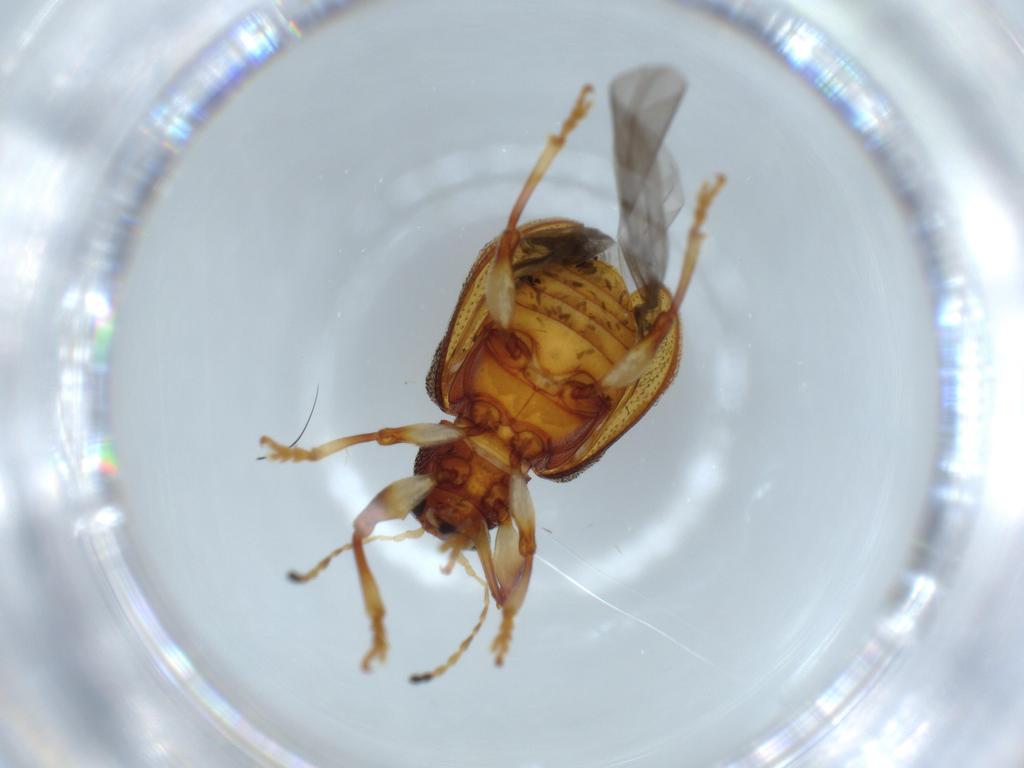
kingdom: Animalia
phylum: Arthropoda
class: Insecta
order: Coleoptera
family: Chrysomelidae
